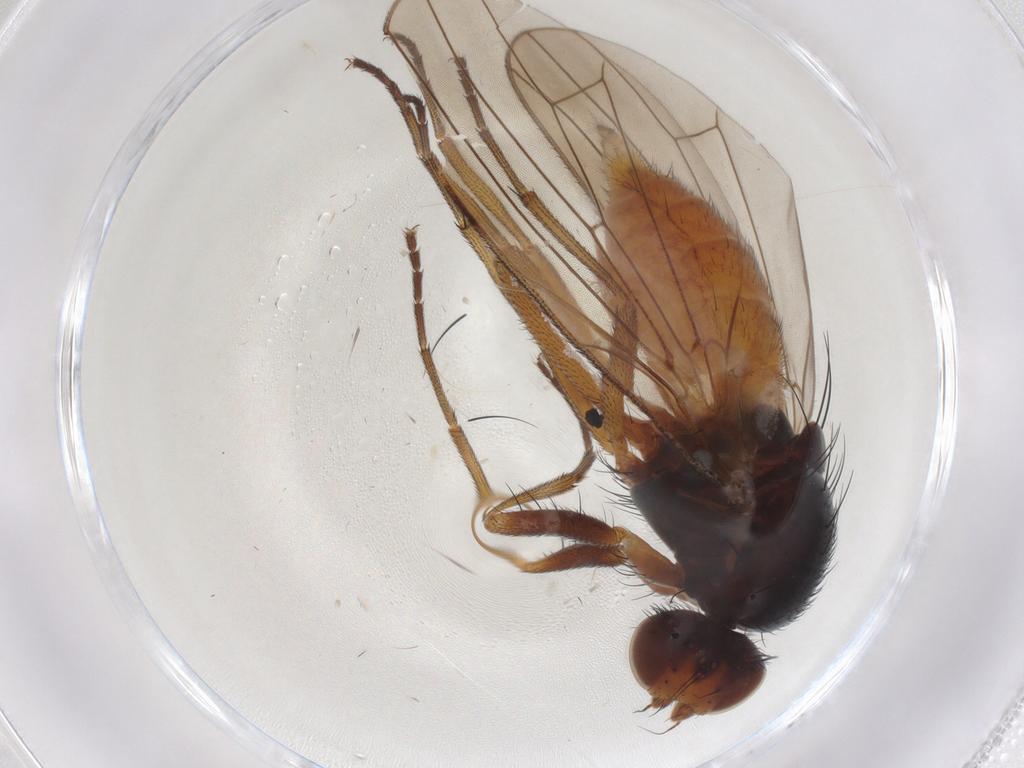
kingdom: Animalia
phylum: Arthropoda
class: Insecta
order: Diptera
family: Heleomyzidae
